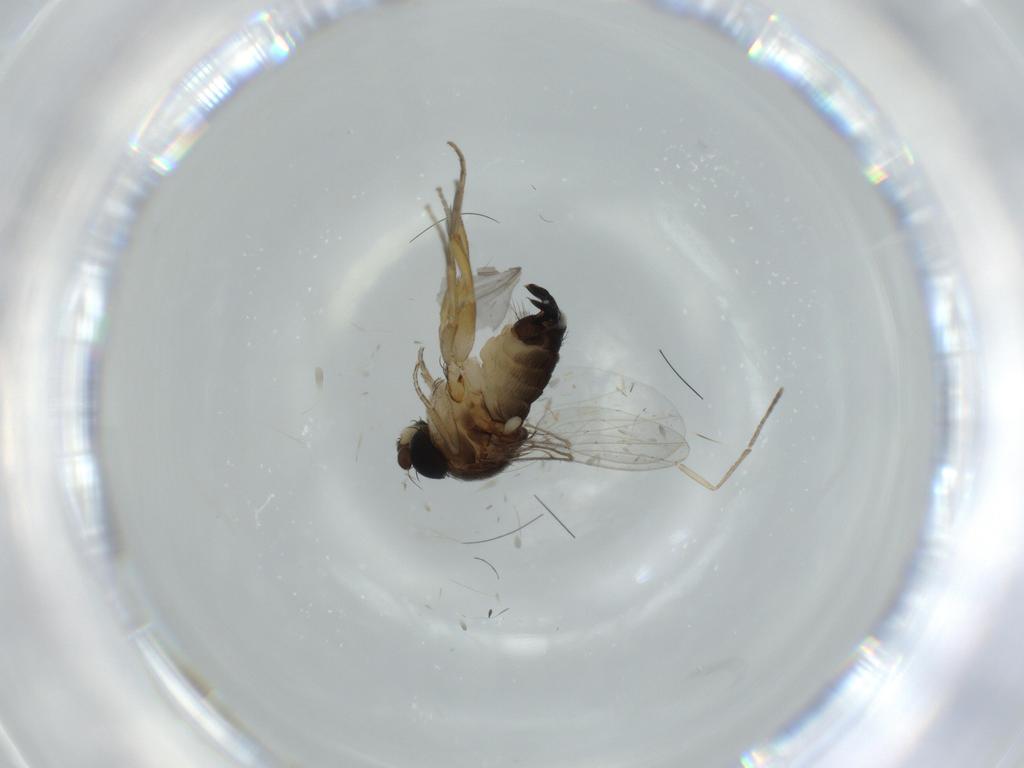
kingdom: Animalia
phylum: Arthropoda
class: Insecta
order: Diptera
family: Phoridae
